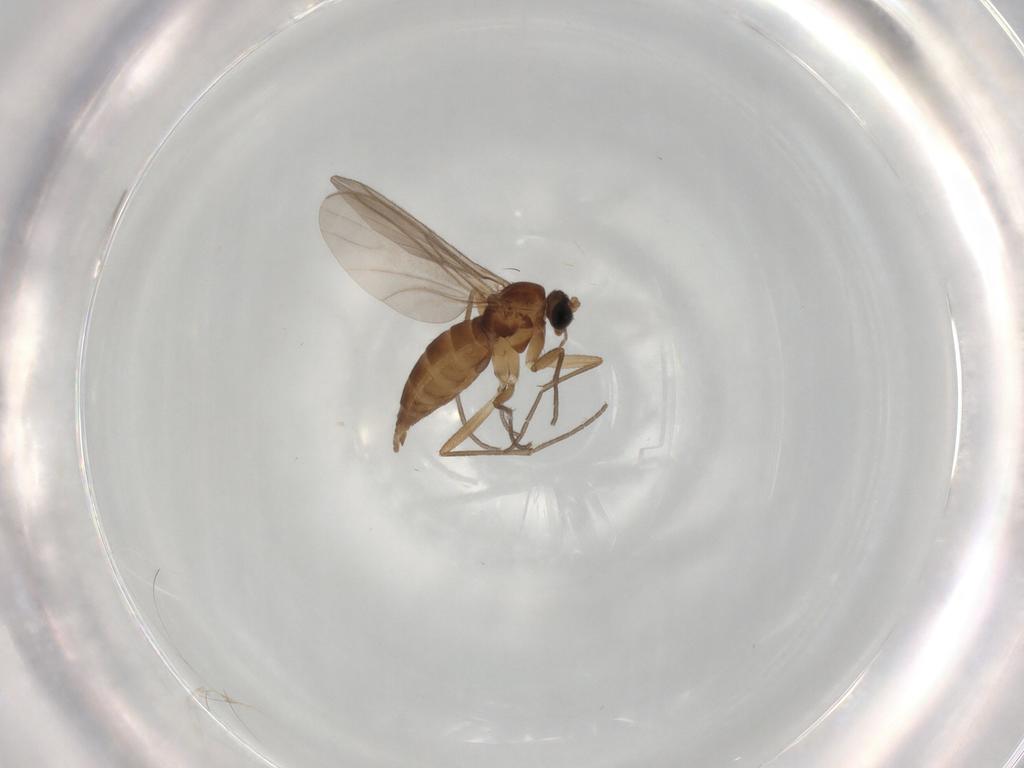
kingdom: Animalia
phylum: Arthropoda
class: Insecta
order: Diptera
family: Sciaridae
